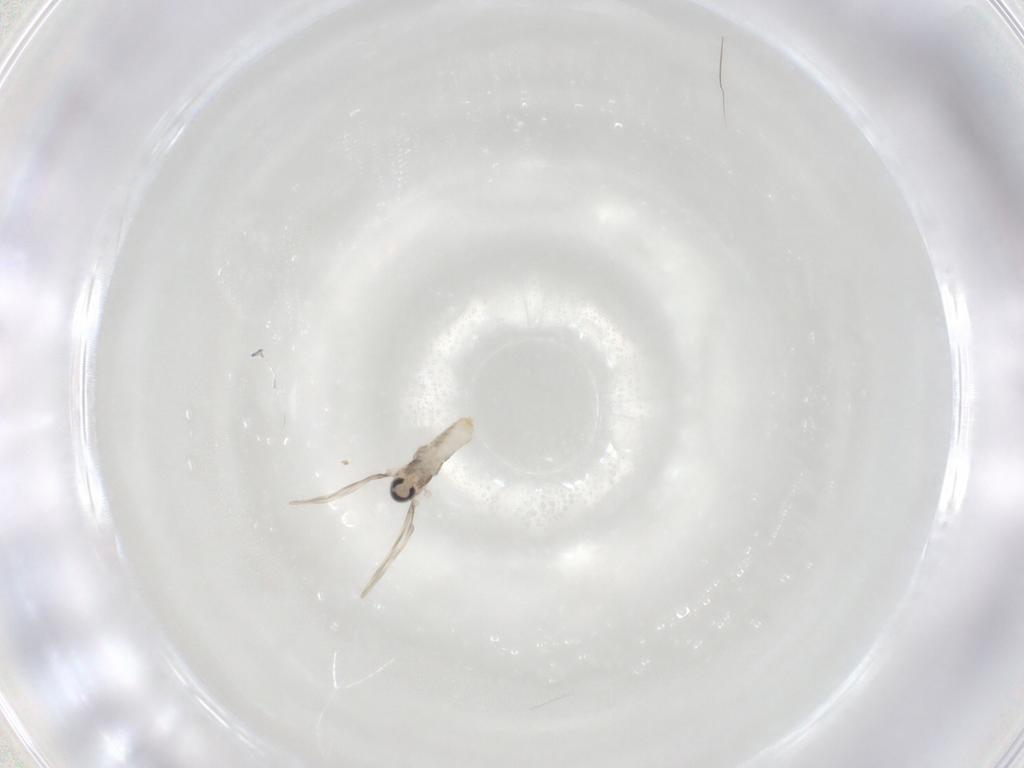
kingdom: Animalia
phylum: Arthropoda
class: Insecta
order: Diptera
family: Cecidomyiidae
